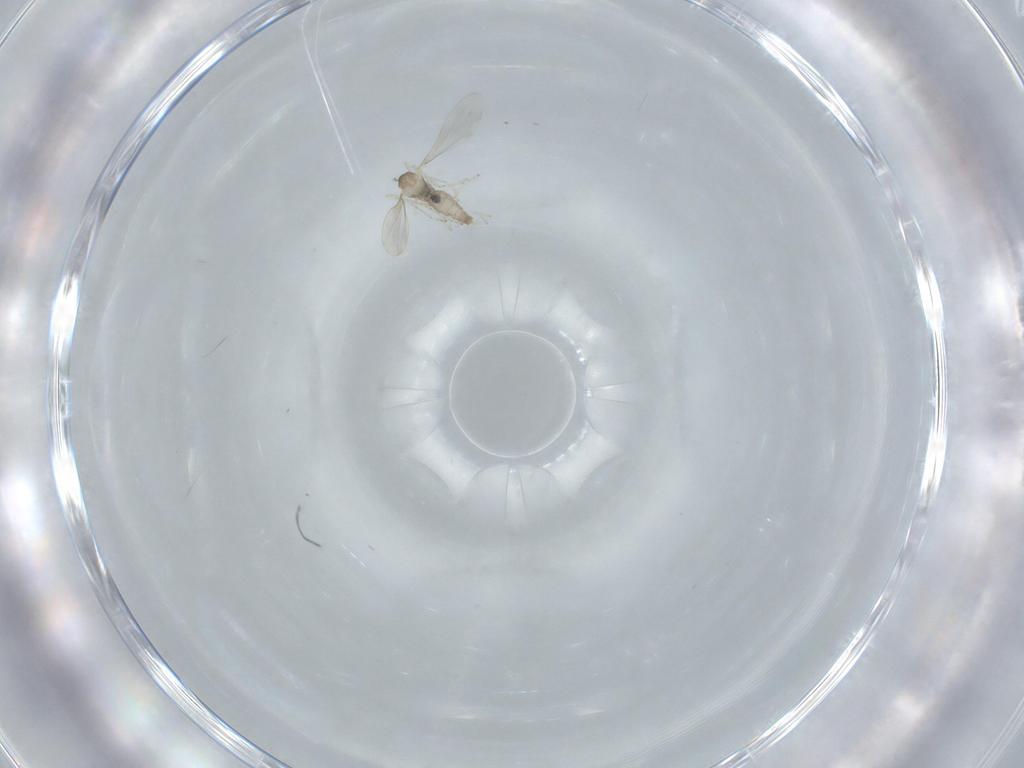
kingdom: Animalia
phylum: Arthropoda
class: Insecta
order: Diptera
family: Cecidomyiidae
